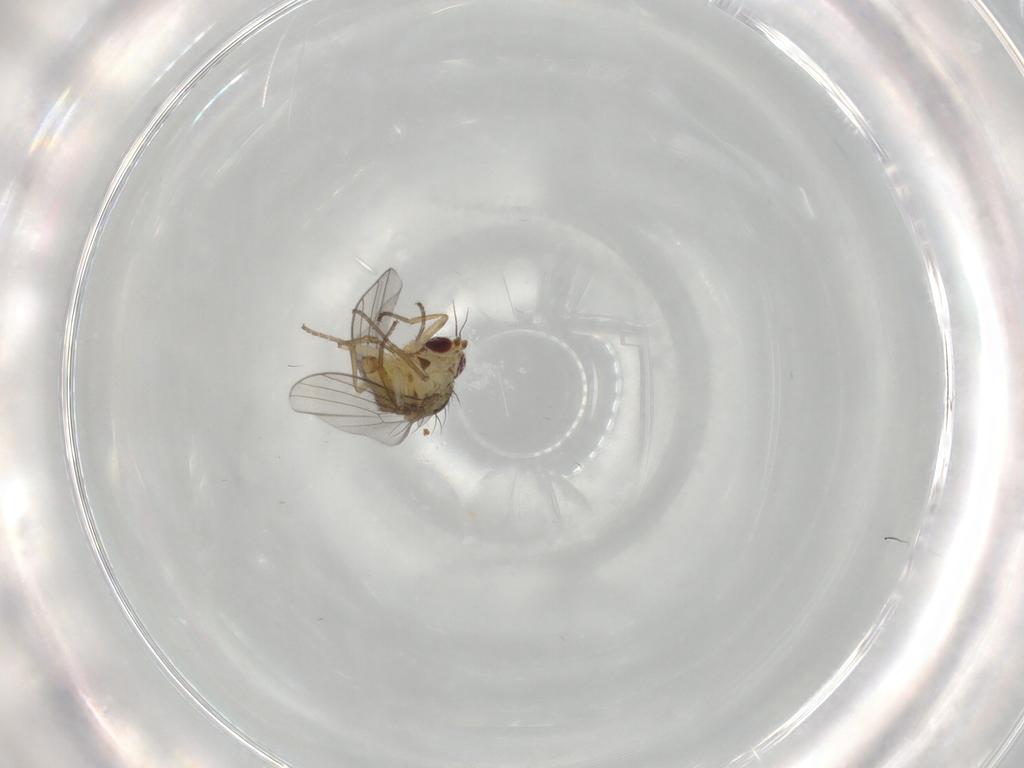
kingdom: Animalia
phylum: Arthropoda
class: Insecta
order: Diptera
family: Agromyzidae
